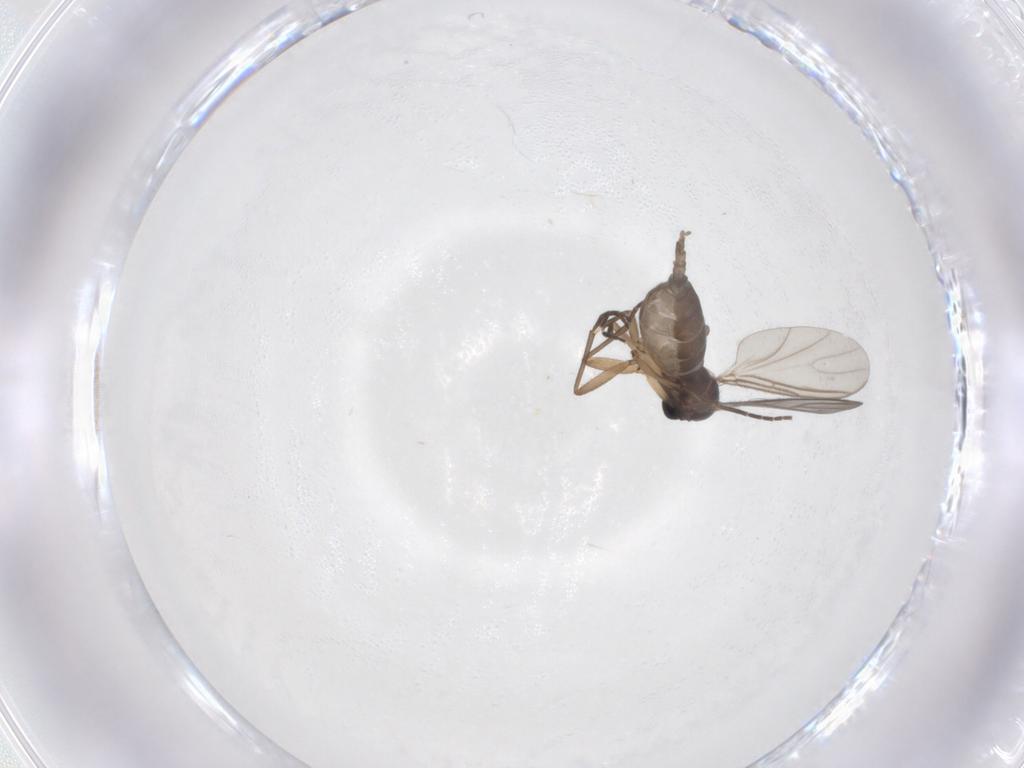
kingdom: Animalia
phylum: Arthropoda
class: Insecta
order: Diptera
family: Sciaridae
